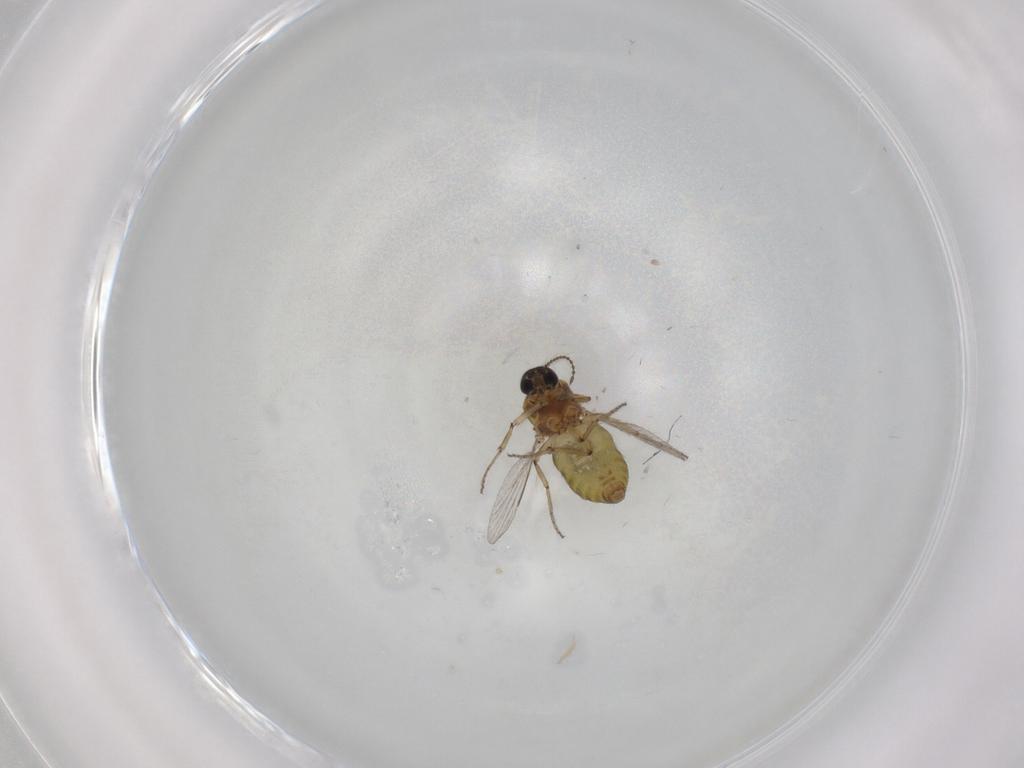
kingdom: Animalia
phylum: Arthropoda
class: Insecta
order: Diptera
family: Ceratopogonidae
